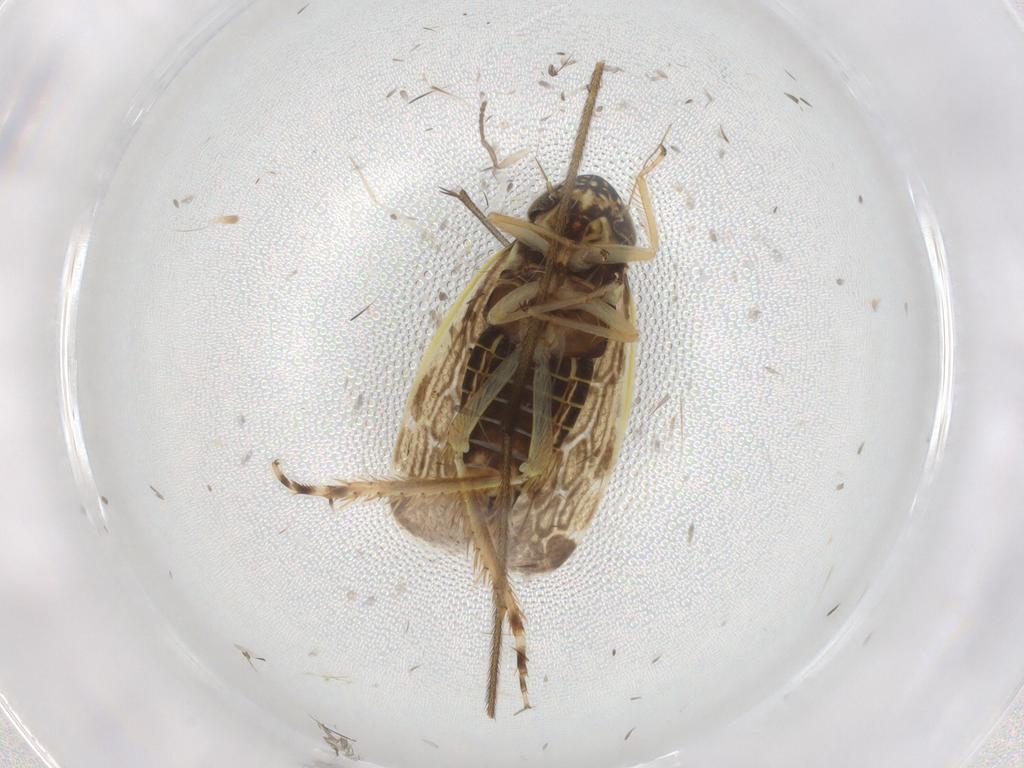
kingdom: Animalia
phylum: Arthropoda
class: Insecta
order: Hemiptera
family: Cicadellidae
